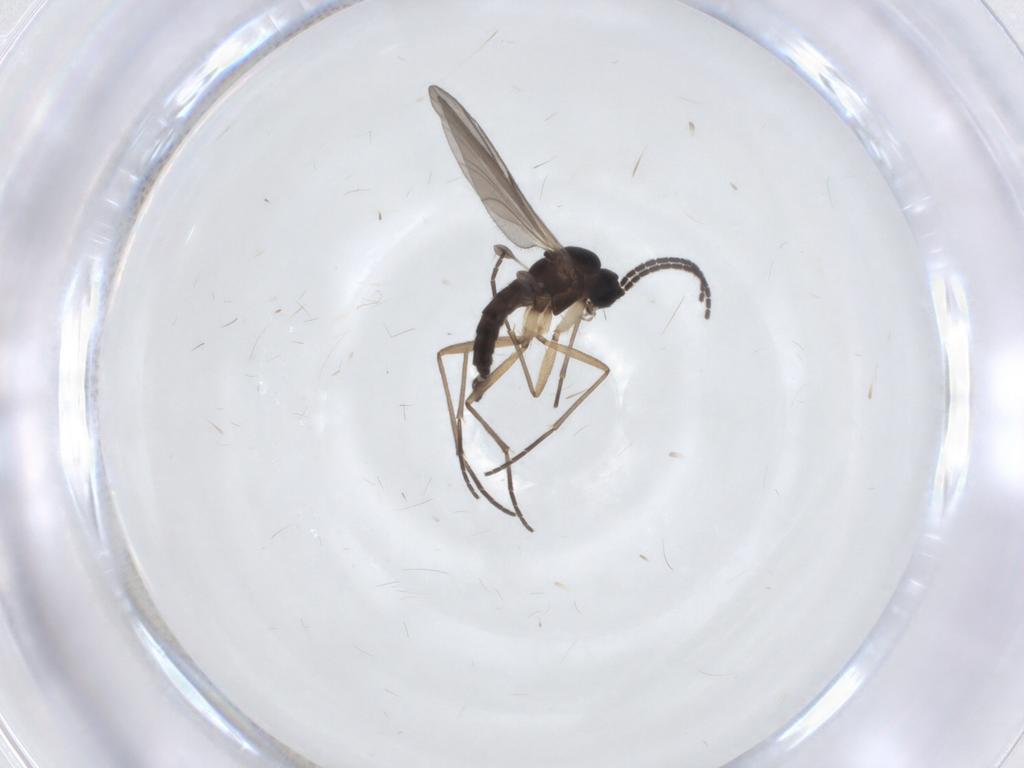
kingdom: Animalia
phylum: Arthropoda
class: Insecta
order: Diptera
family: Sciaridae
